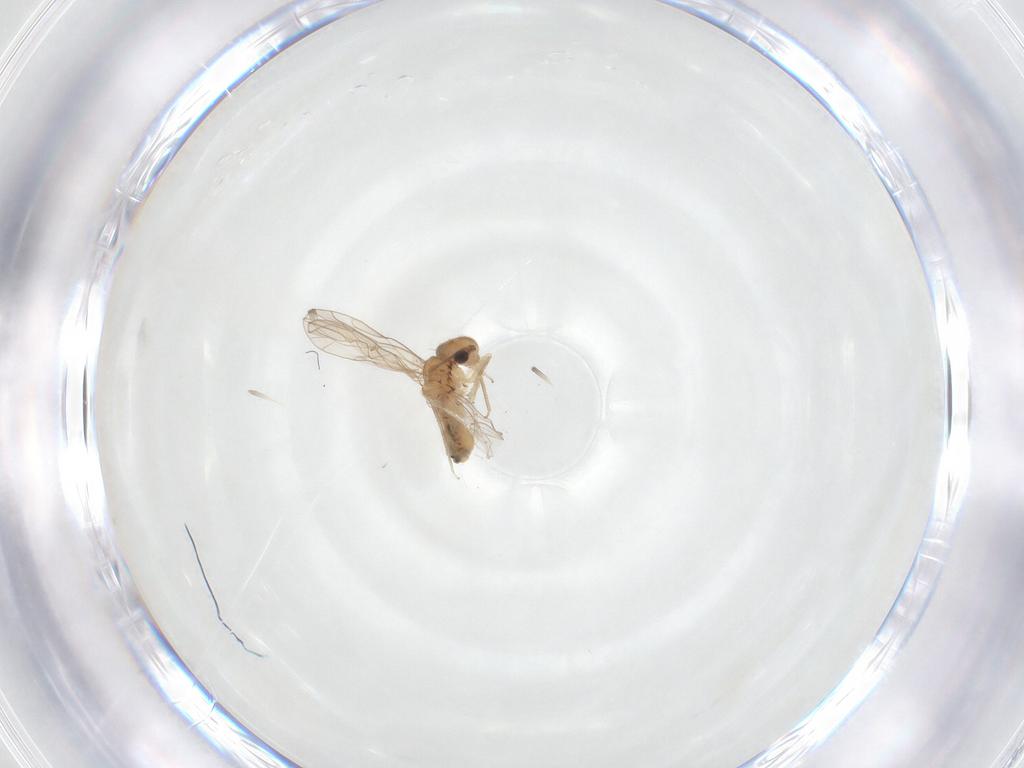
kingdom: Animalia
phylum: Arthropoda
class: Insecta
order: Psocodea
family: Ectopsocidae
